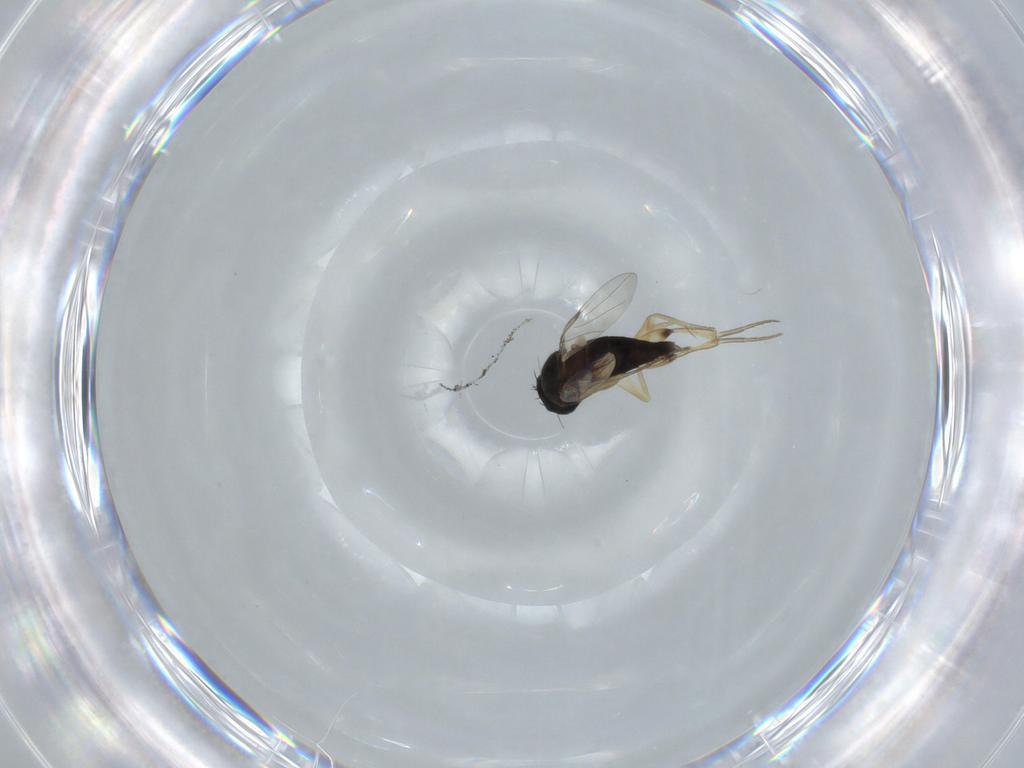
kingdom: Animalia
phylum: Arthropoda
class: Insecta
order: Diptera
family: Phoridae
